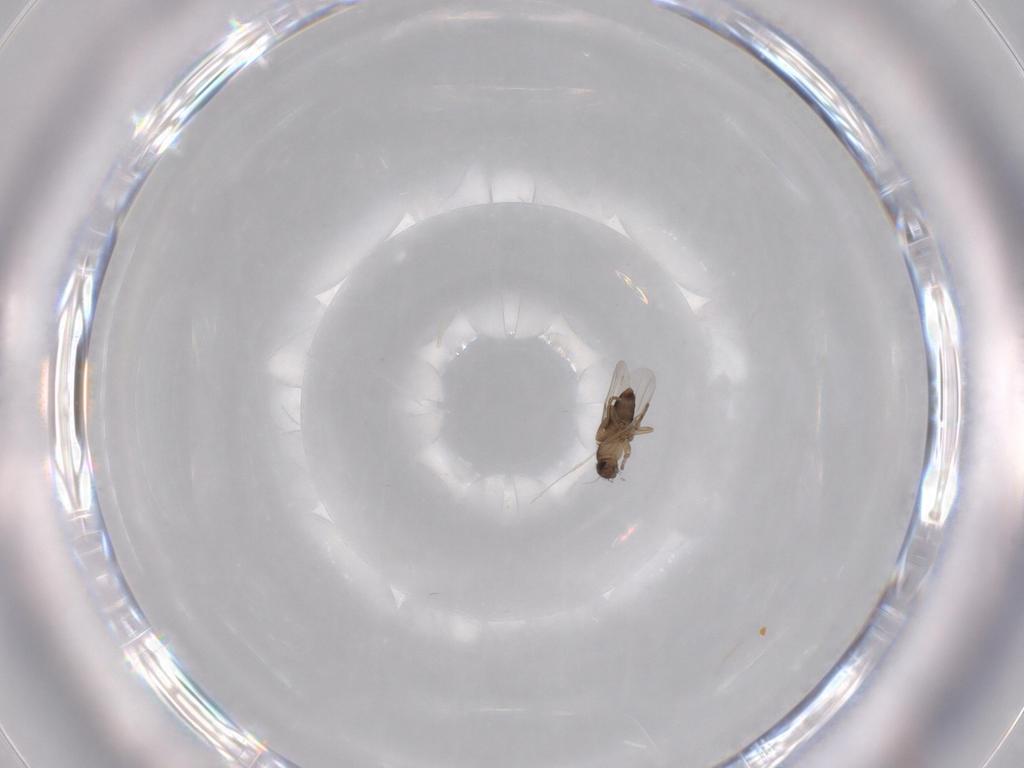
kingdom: Animalia
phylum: Arthropoda
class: Insecta
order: Diptera
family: Phoridae
